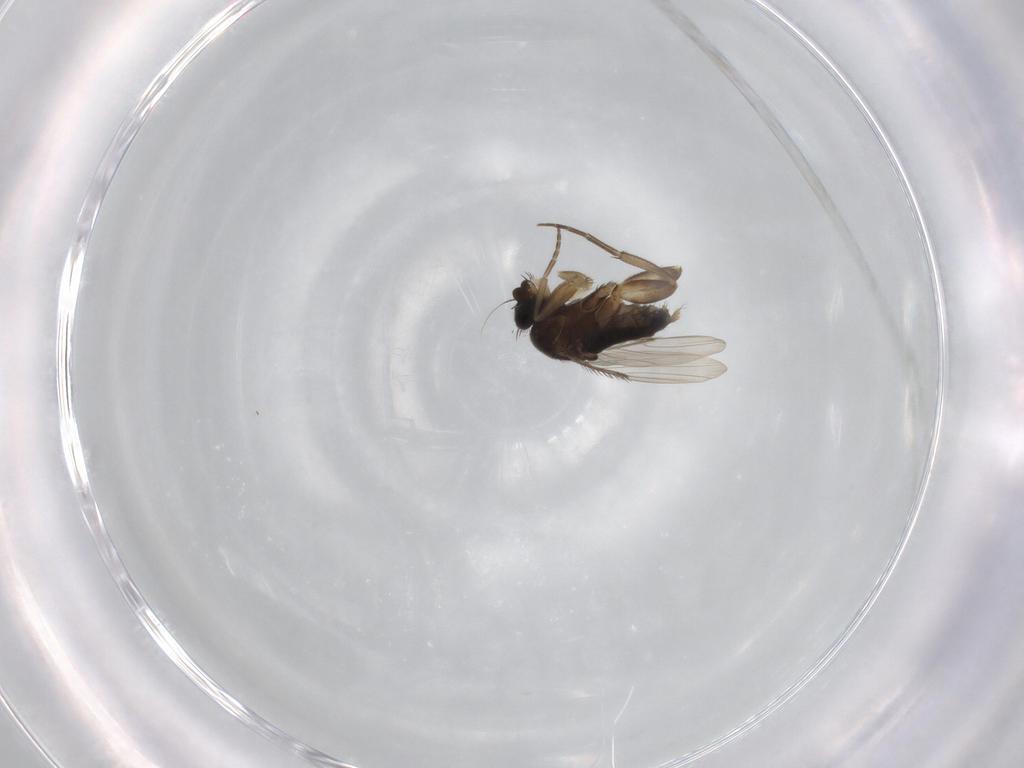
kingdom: Animalia
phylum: Arthropoda
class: Insecta
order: Diptera
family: Phoridae
